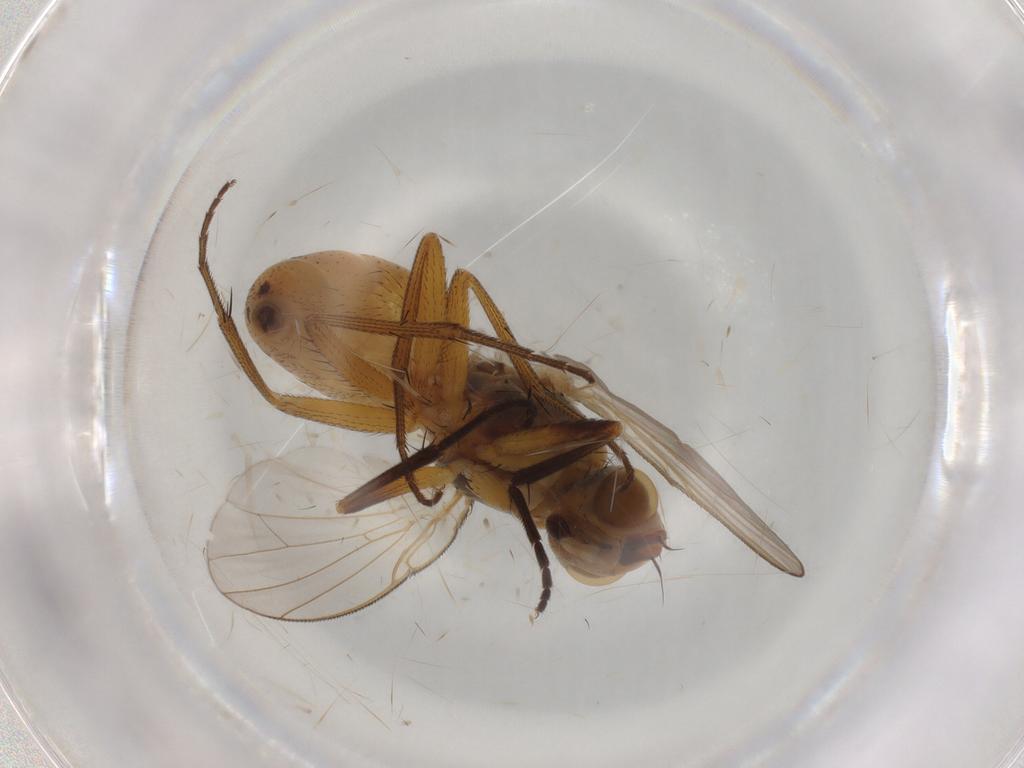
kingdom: Animalia
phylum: Arthropoda
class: Insecta
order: Diptera
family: Muscidae
